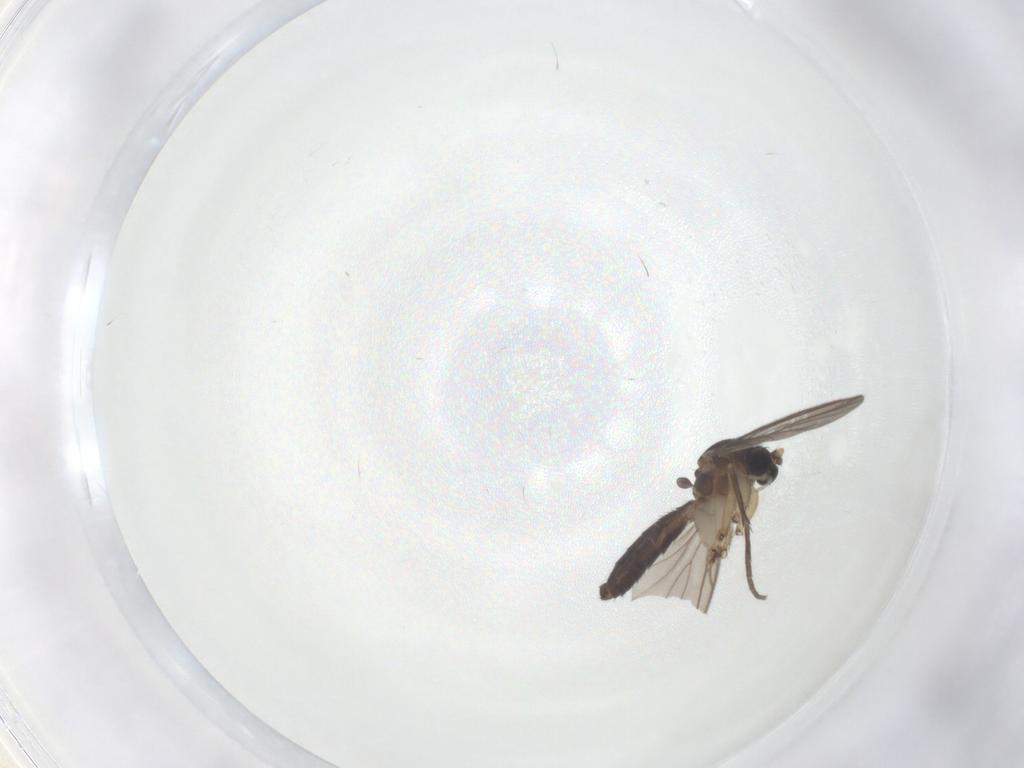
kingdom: Animalia
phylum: Arthropoda
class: Insecta
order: Diptera
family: Mycetophilidae
